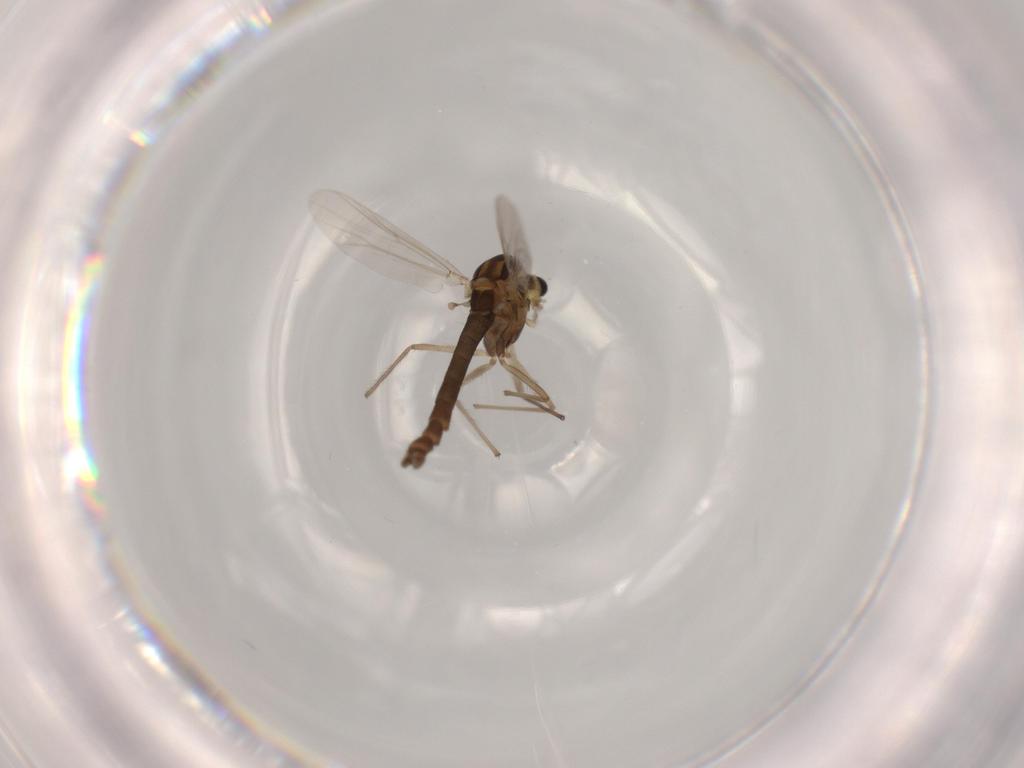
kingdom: Animalia
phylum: Arthropoda
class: Insecta
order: Diptera
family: Chironomidae
